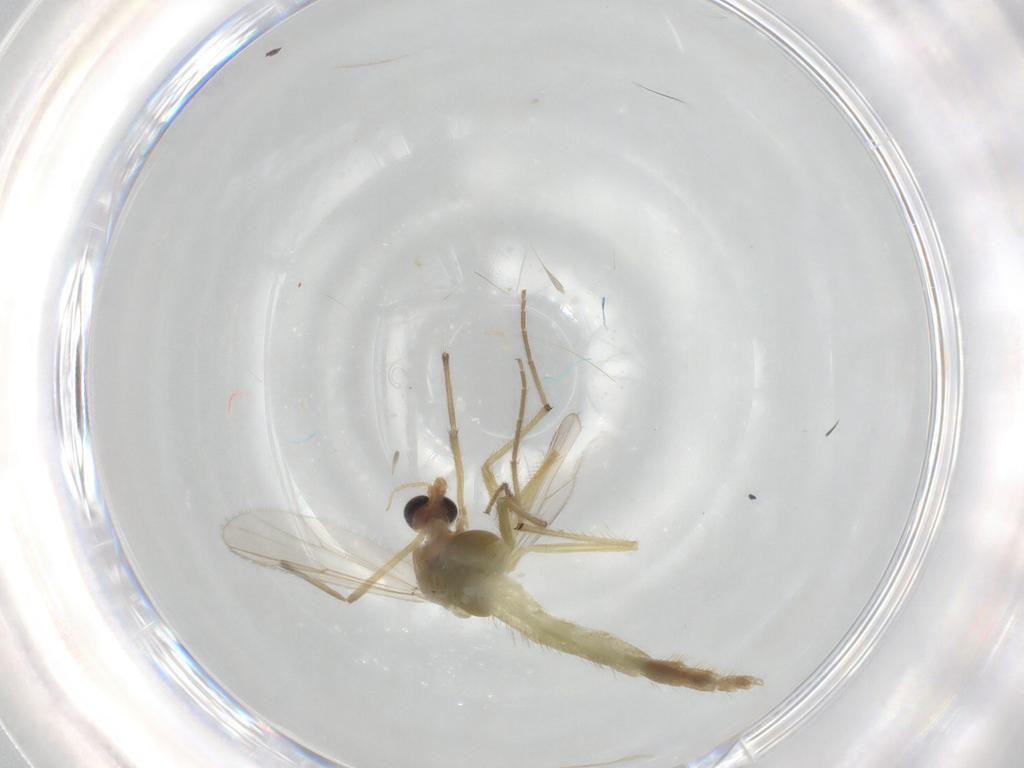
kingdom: Animalia
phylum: Arthropoda
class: Insecta
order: Diptera
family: Chironomidae
